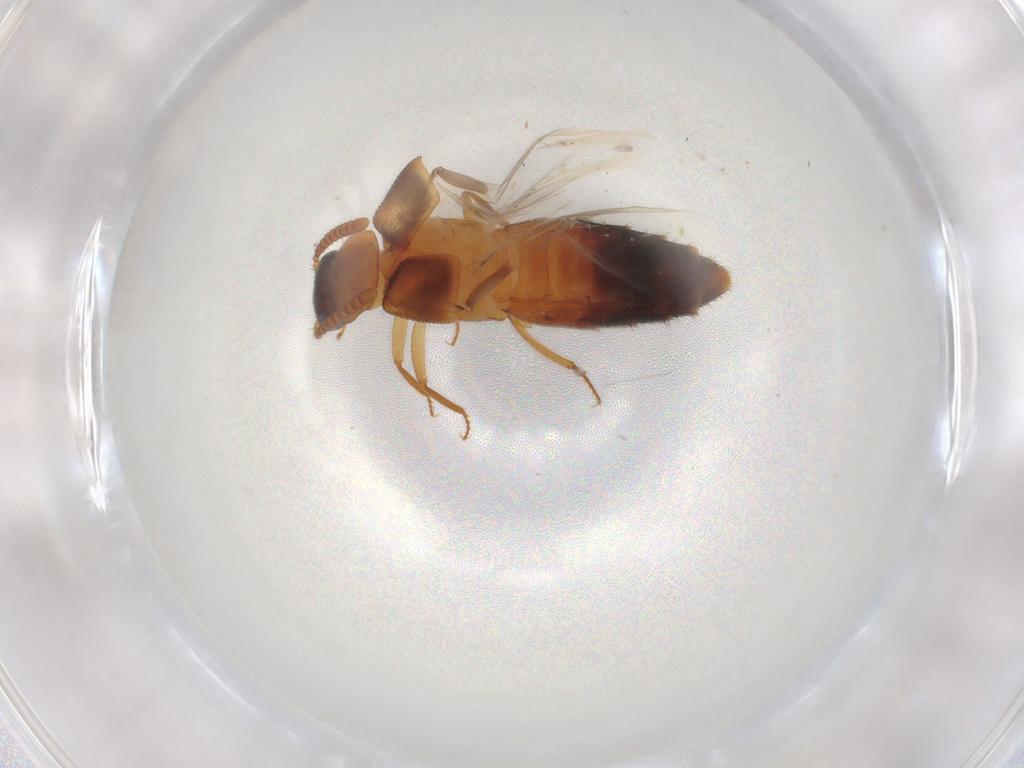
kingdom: Animalia
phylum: Arthropoda
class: Insecta
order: Coleoptera
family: Staphylinidae
